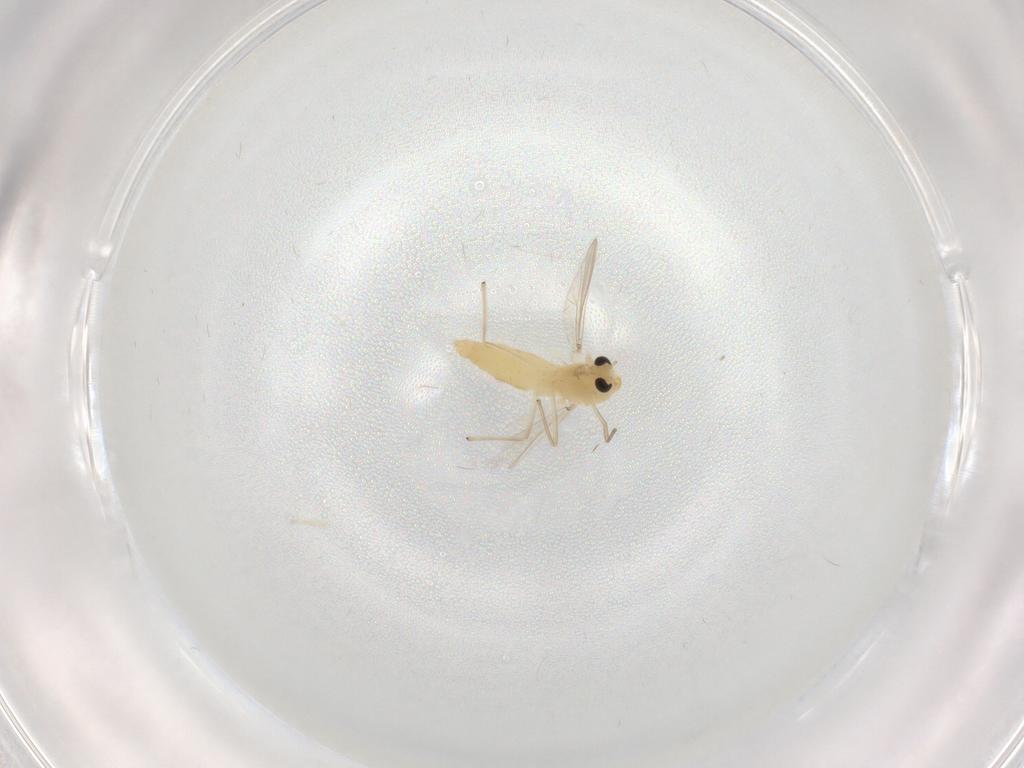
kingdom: Animalia
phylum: Arthropoda
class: Insecta
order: Diptera
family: Chironomidae
